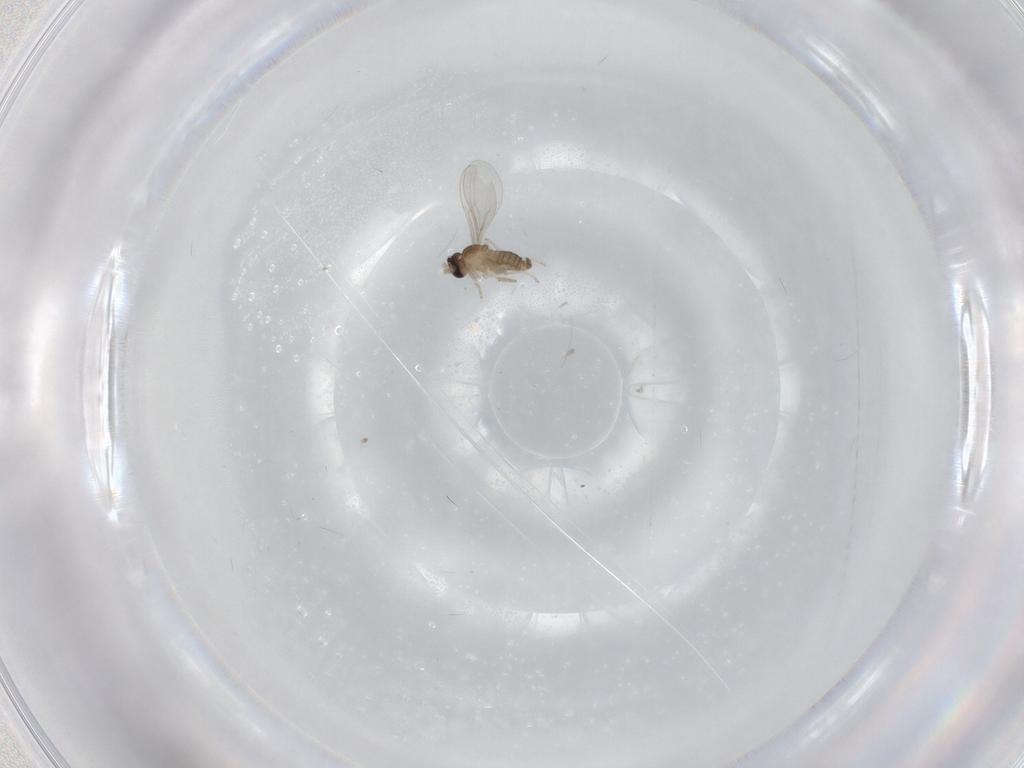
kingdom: Animalia
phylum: Arthropoda
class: Insecta
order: Diptera
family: Cecidomyiidae
